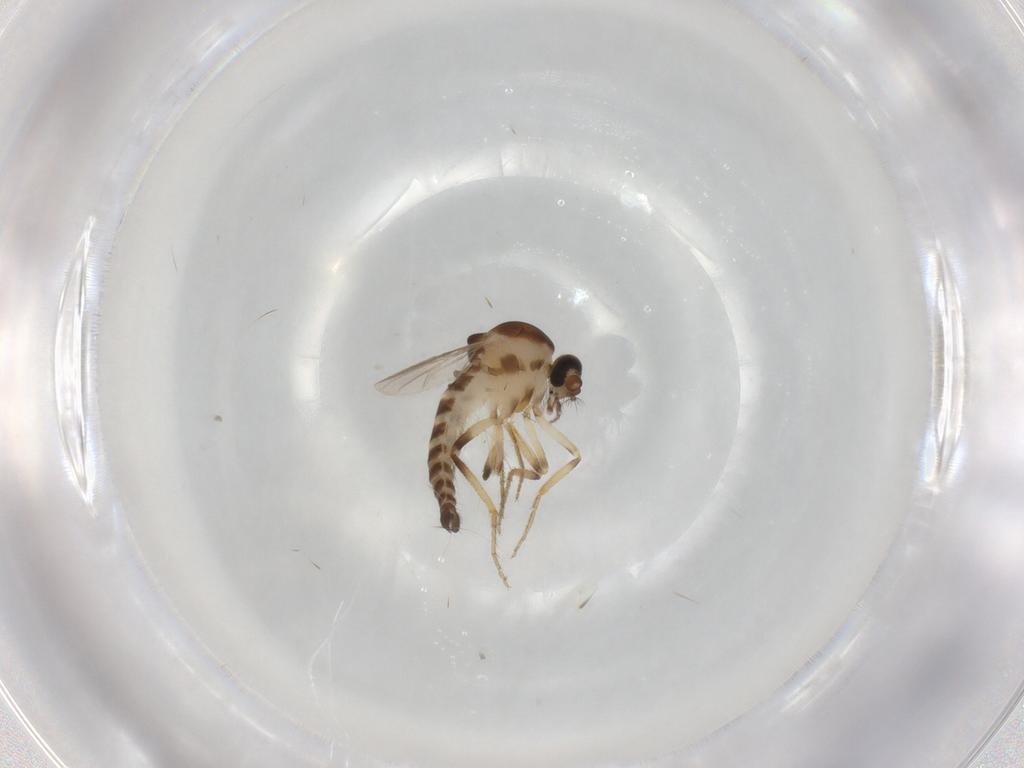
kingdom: Animalia
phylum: Arthropoda
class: Insecta
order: Diptera
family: Ceratopogonidae
